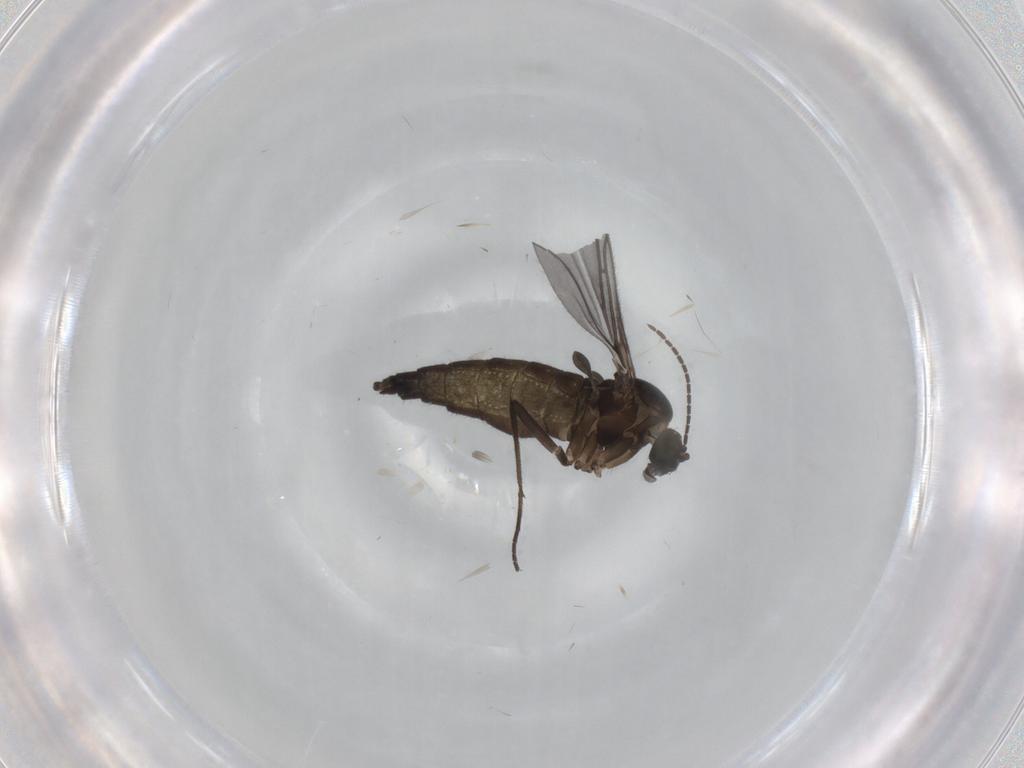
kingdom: Animalia
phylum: Arthropoda
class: Insecta
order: Diptera
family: Sciaridae
